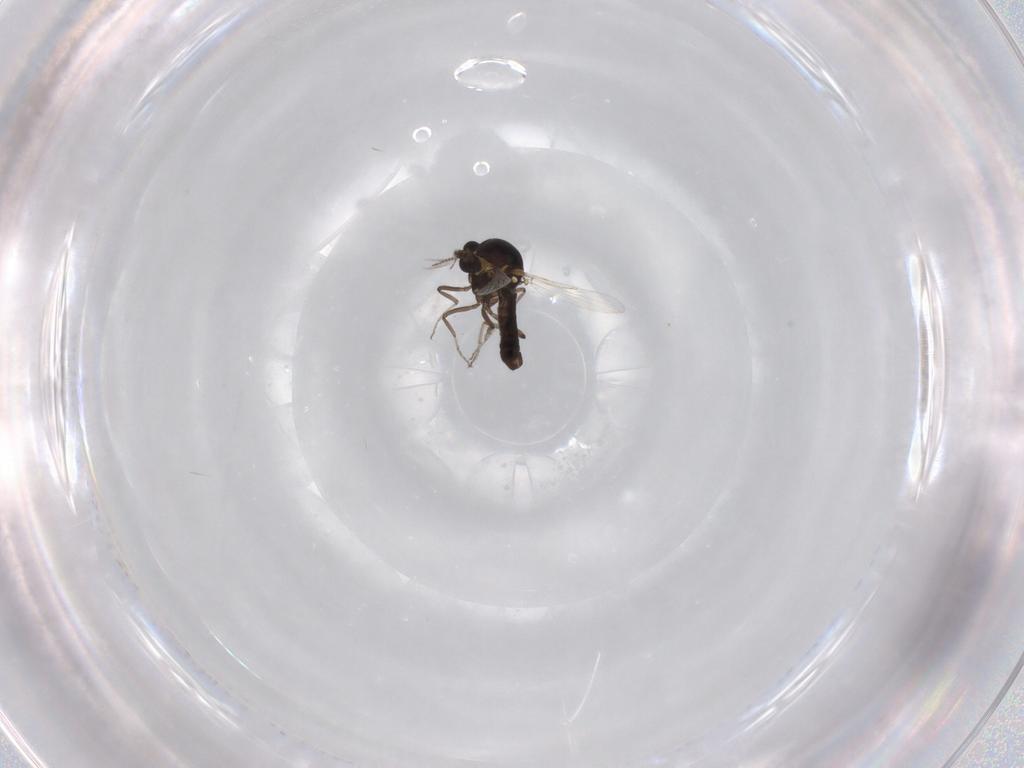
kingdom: Animalia
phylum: Arthropoda
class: Insecta
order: Diptera
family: Ceratopogonidae
